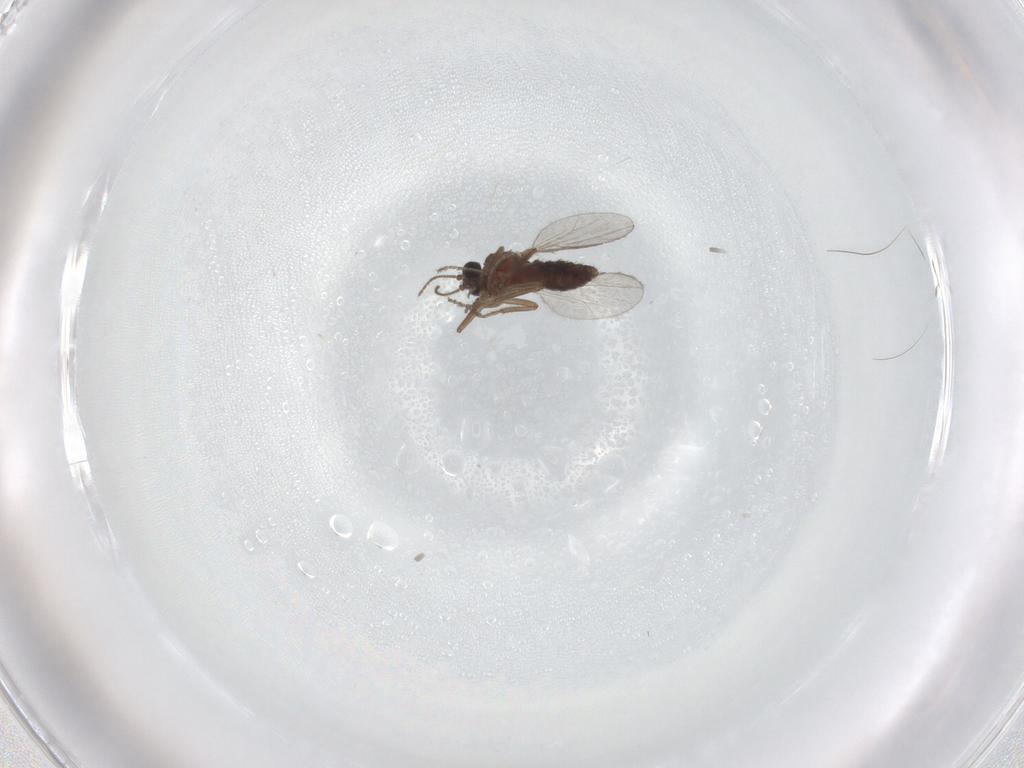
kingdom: Animalia
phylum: Arthropoda
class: Insecta
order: Diptera
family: Ceratopogonidae
